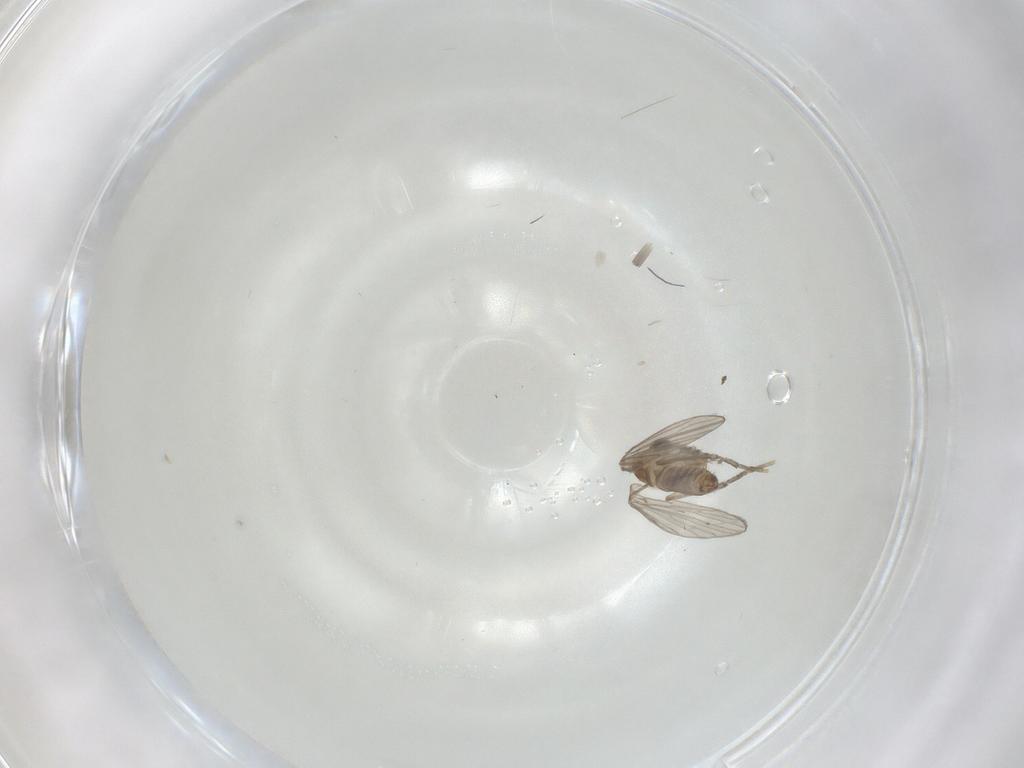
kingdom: Animalia
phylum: Arthropoda
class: Insecta
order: Diptera
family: Psychodidae
